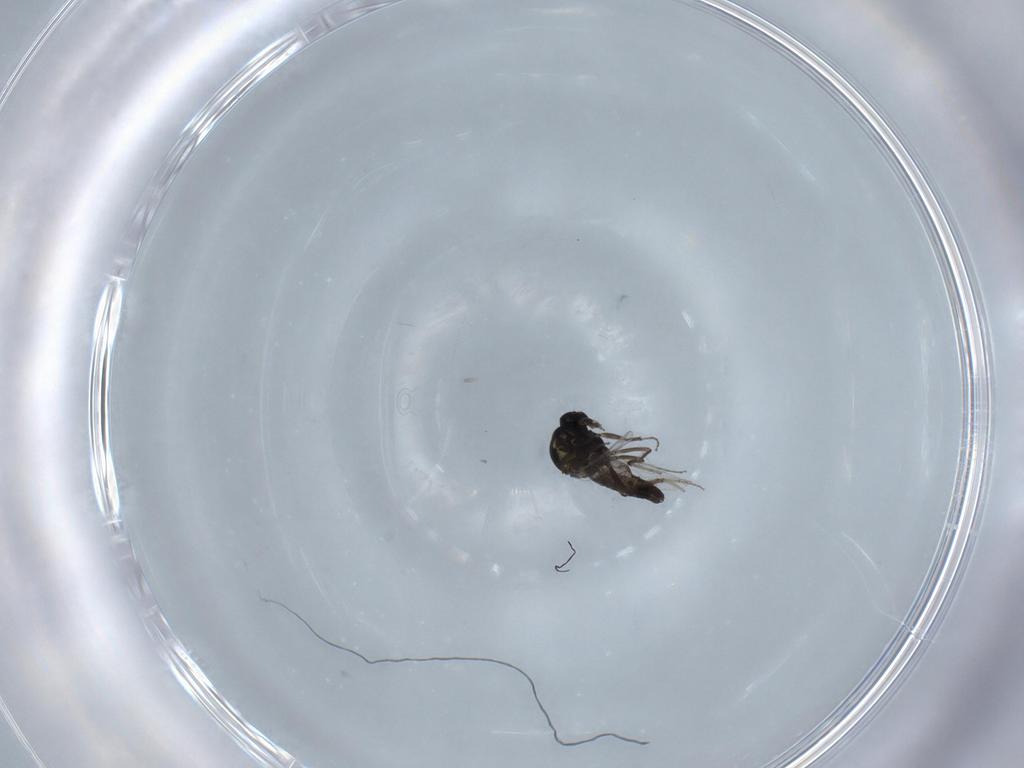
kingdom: Animalia
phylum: Arthropoda
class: Insecta
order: Diptera
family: Ceratopogonidae
